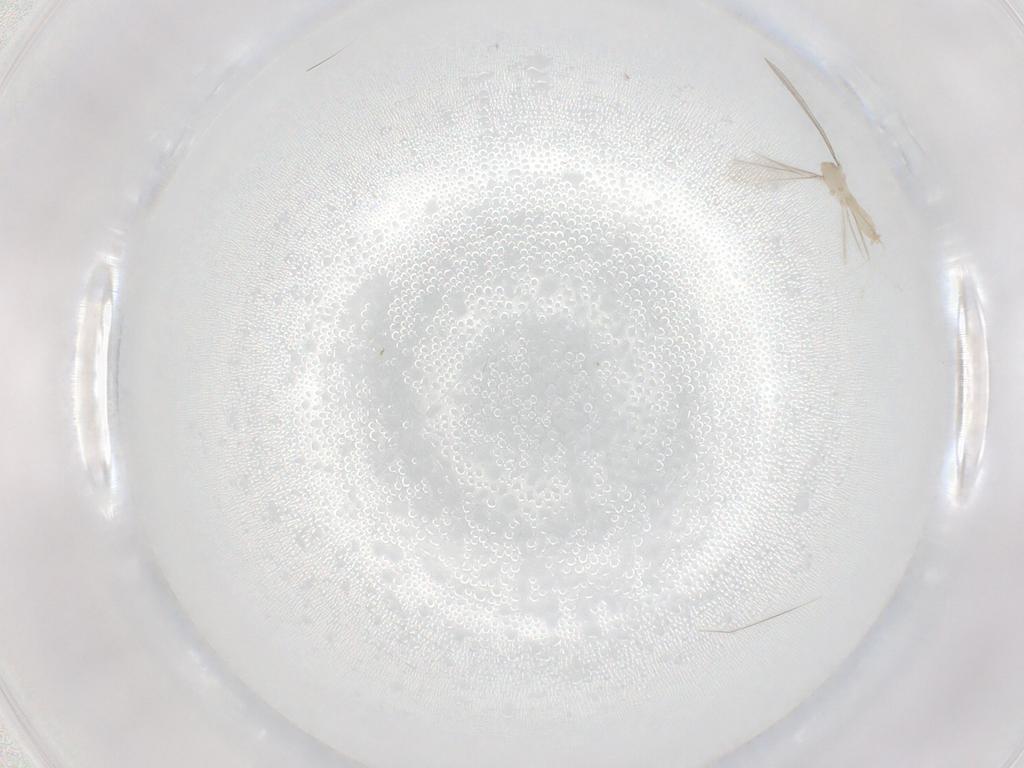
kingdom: Animalia
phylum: Arthropoda
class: Insecta
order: Diptera
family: Cecidomyiidae
